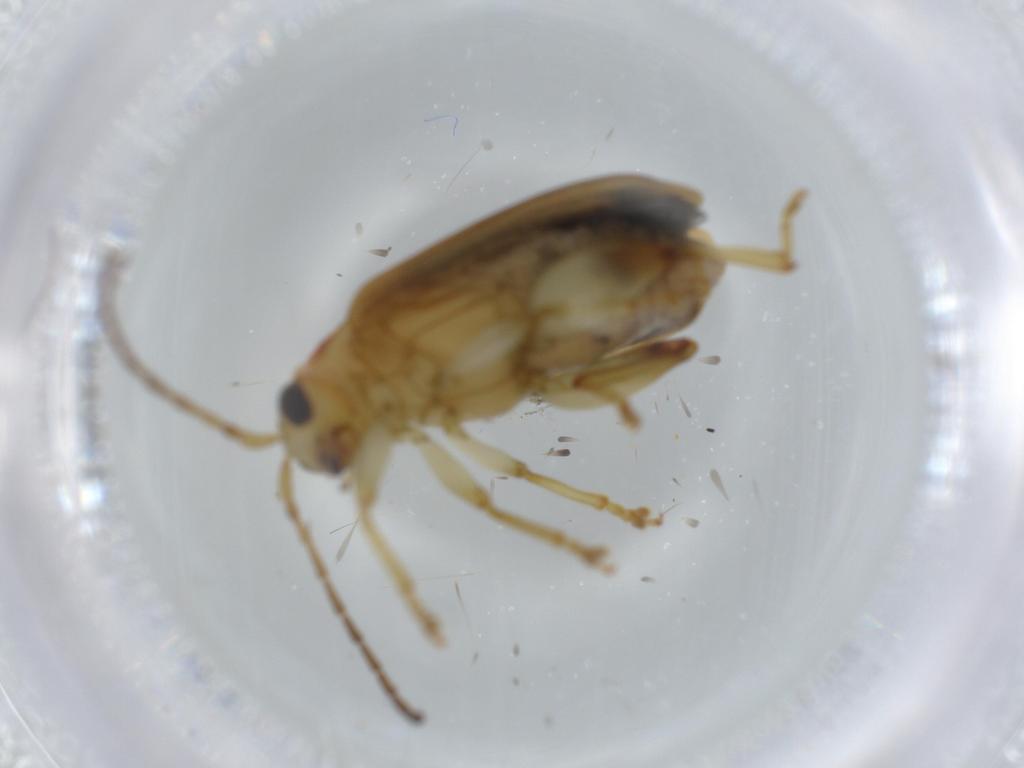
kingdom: Animalia
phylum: Arthropoda
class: Insecta
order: Coleoptera
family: Chrysomelidae
